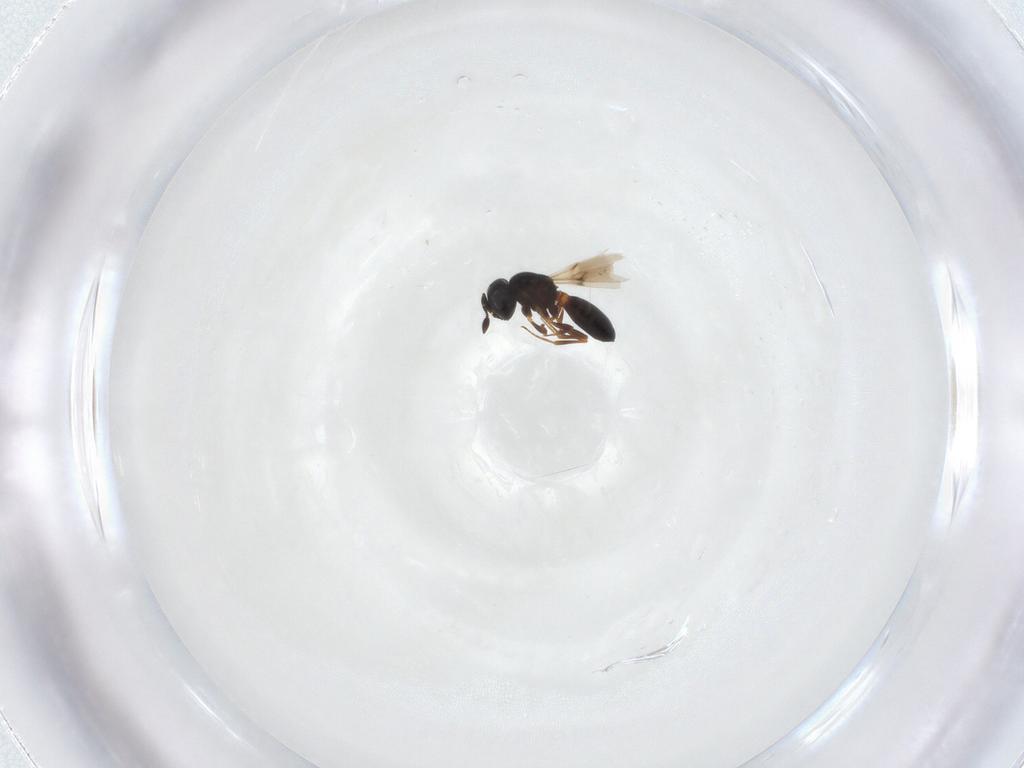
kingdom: Animalia
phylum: Arthropoda
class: Insecta
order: Hymenoptera
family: Scelionidae
